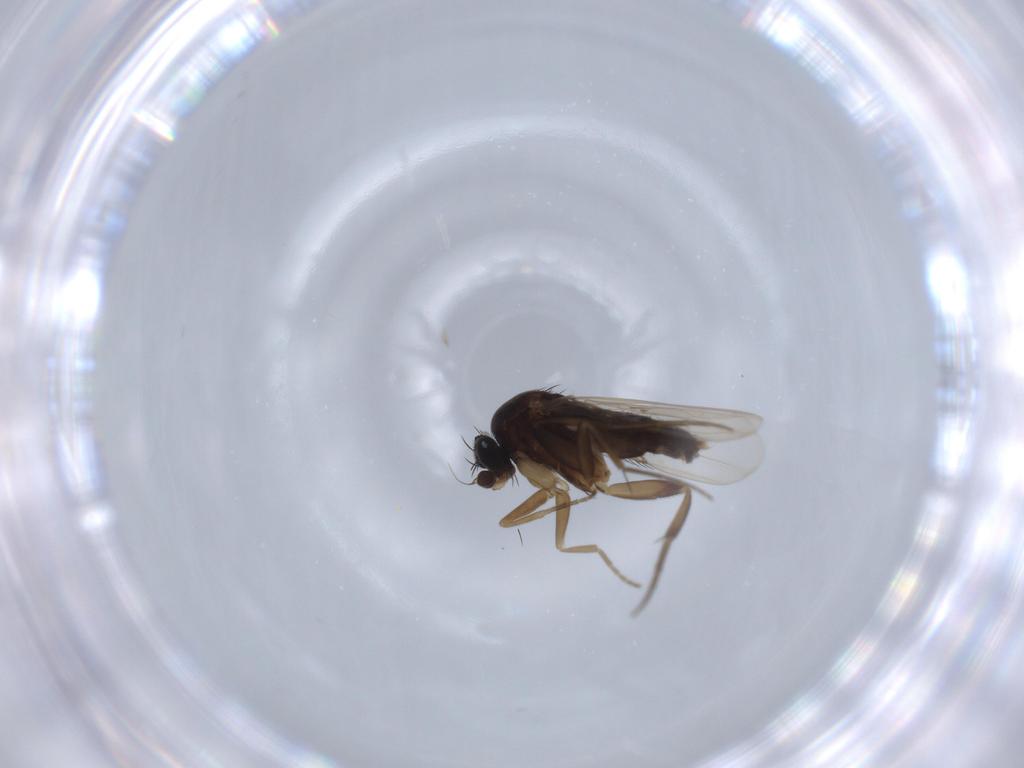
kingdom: Animalia
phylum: Arthropoda
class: Insecta
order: Diptera
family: Phoridae
